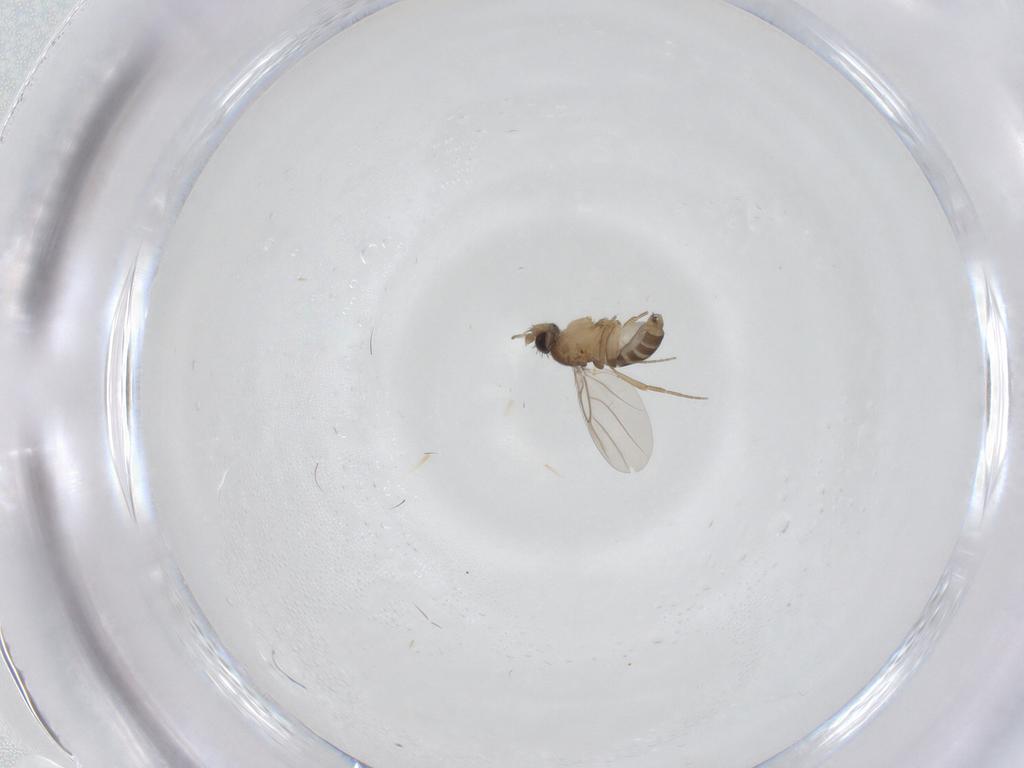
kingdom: Animalia
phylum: Arthropoda
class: Insecta
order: Diptera
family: Phoridae
